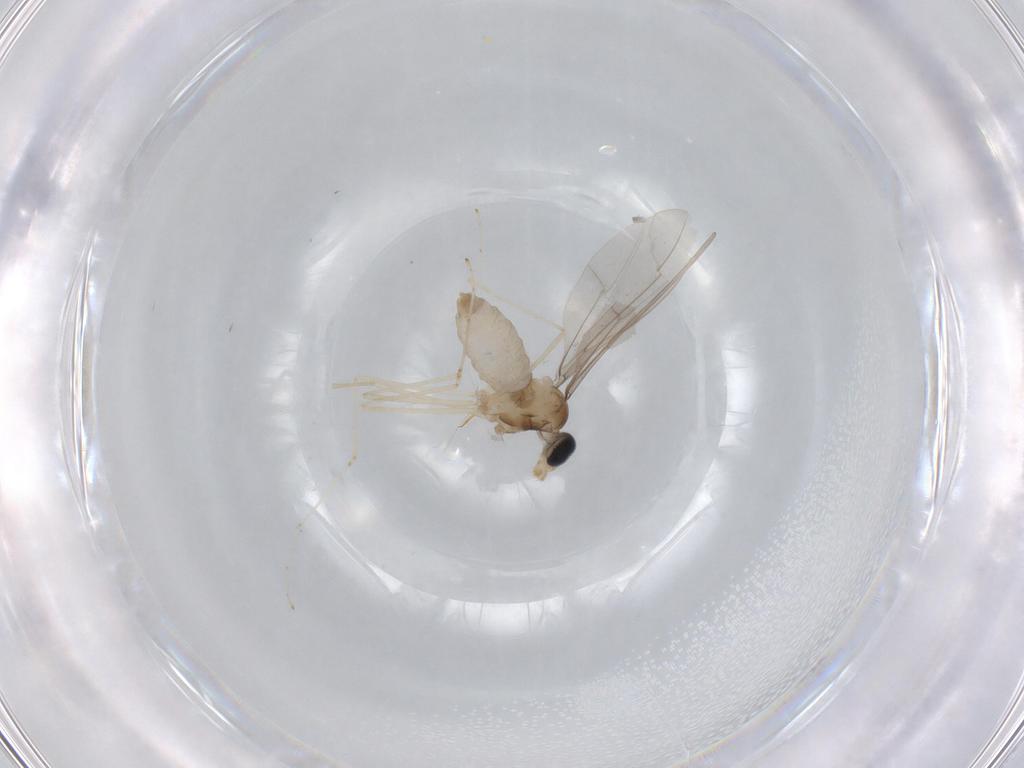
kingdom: Animalia
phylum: Arthropoda
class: Insecta
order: Diptera
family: Cecidomyiidae
